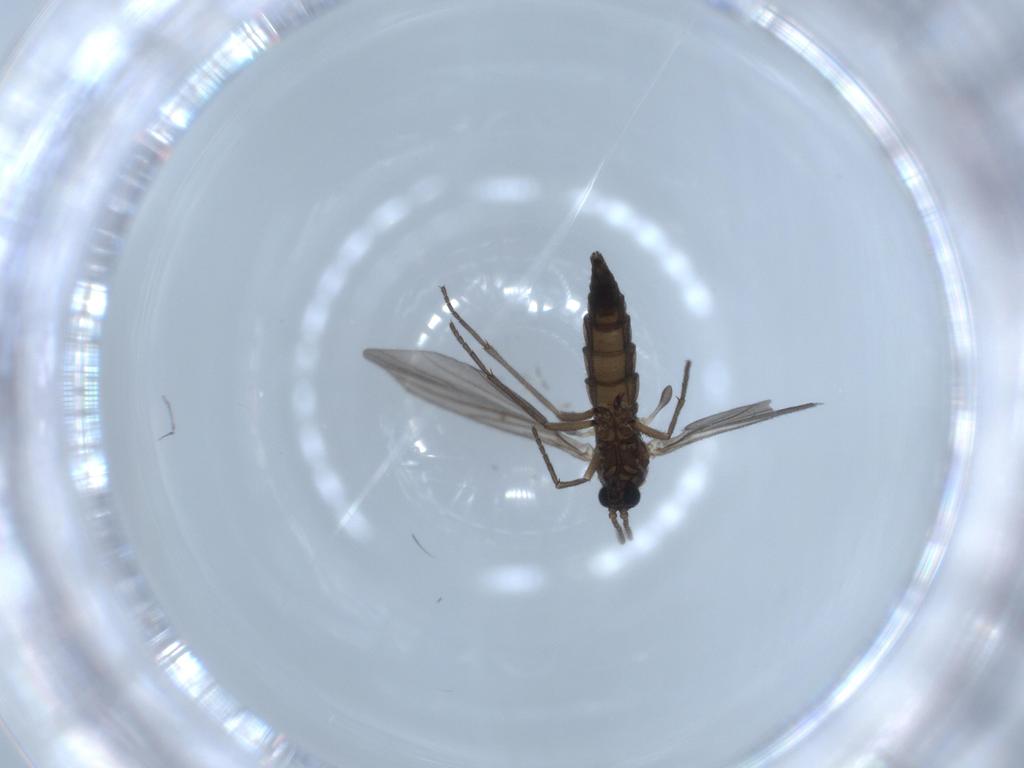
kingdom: Animalia
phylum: Arthropoda
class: Insecta
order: Diptera
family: Sciaridae
